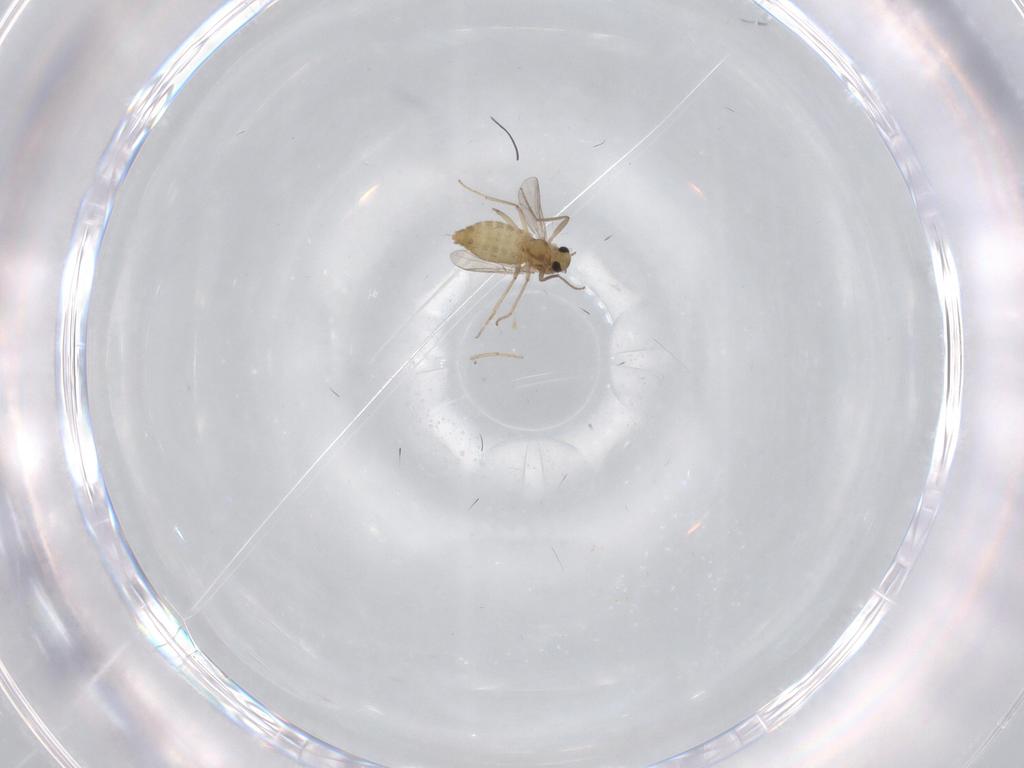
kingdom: Animalia
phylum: Arthropoda
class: Insecta
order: Diptera
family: Chironomidae
